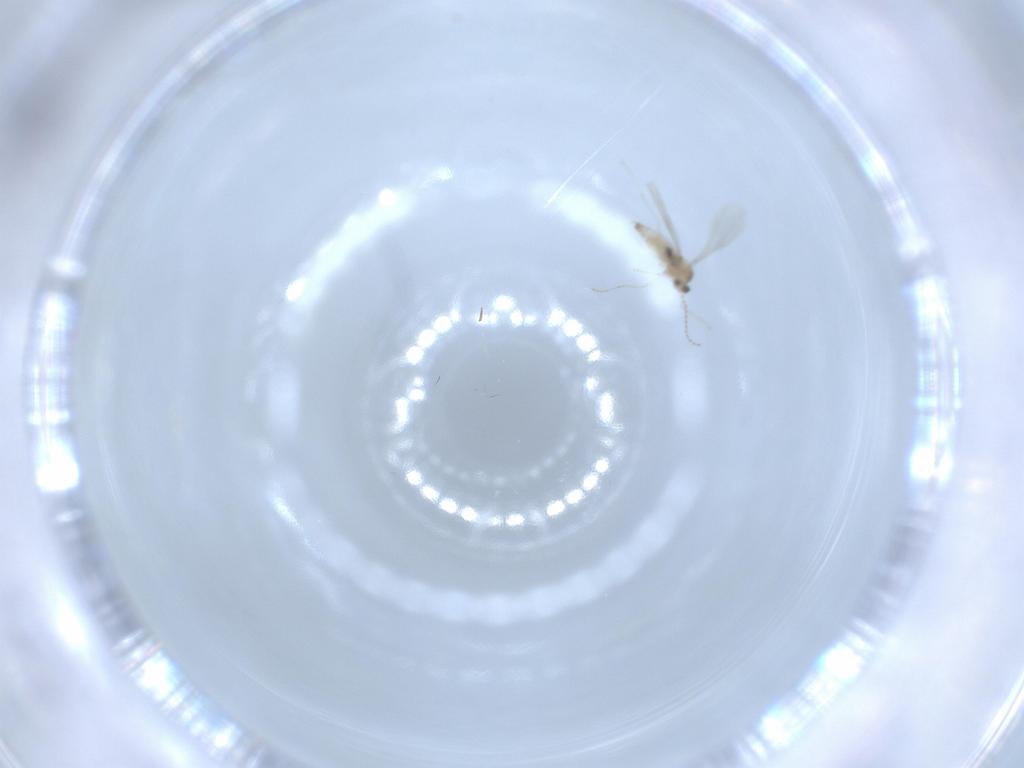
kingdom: Animalia
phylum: Arthropoda
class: Insecta
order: Diptera
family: Cecidomyiidae
